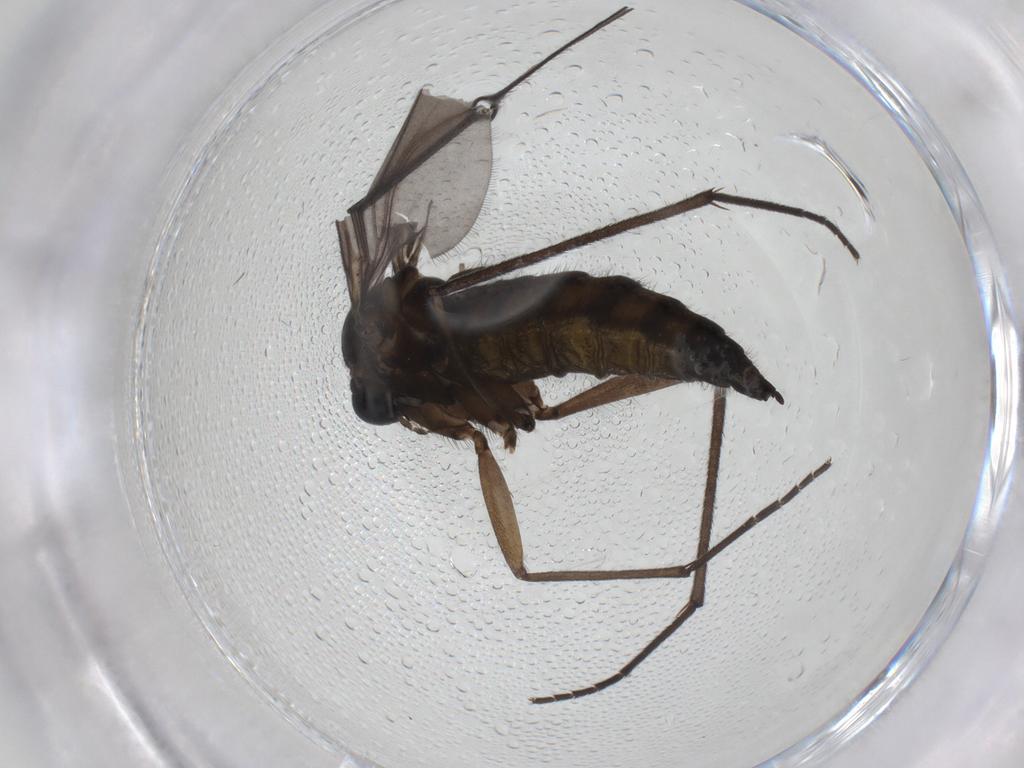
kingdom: Animalia
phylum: Arthropoda
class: Insecta
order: Diptera
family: Sciaridae
